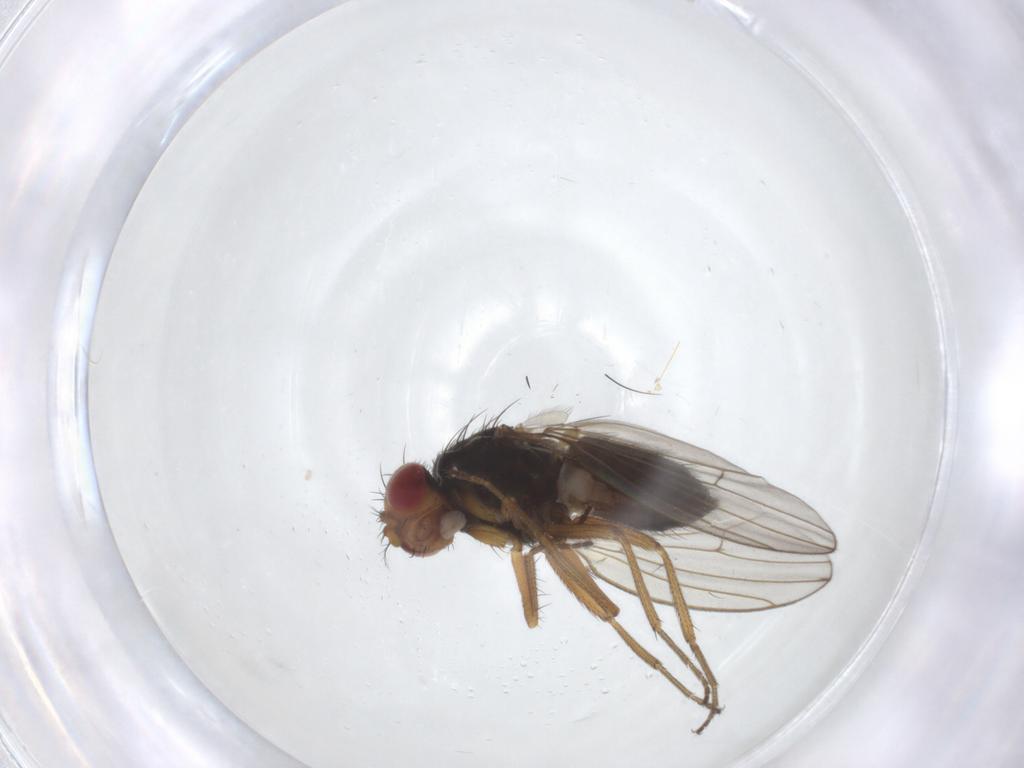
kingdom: Animalia
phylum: Arthropoda
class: Insecta
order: Diptera
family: Drosophilidae
